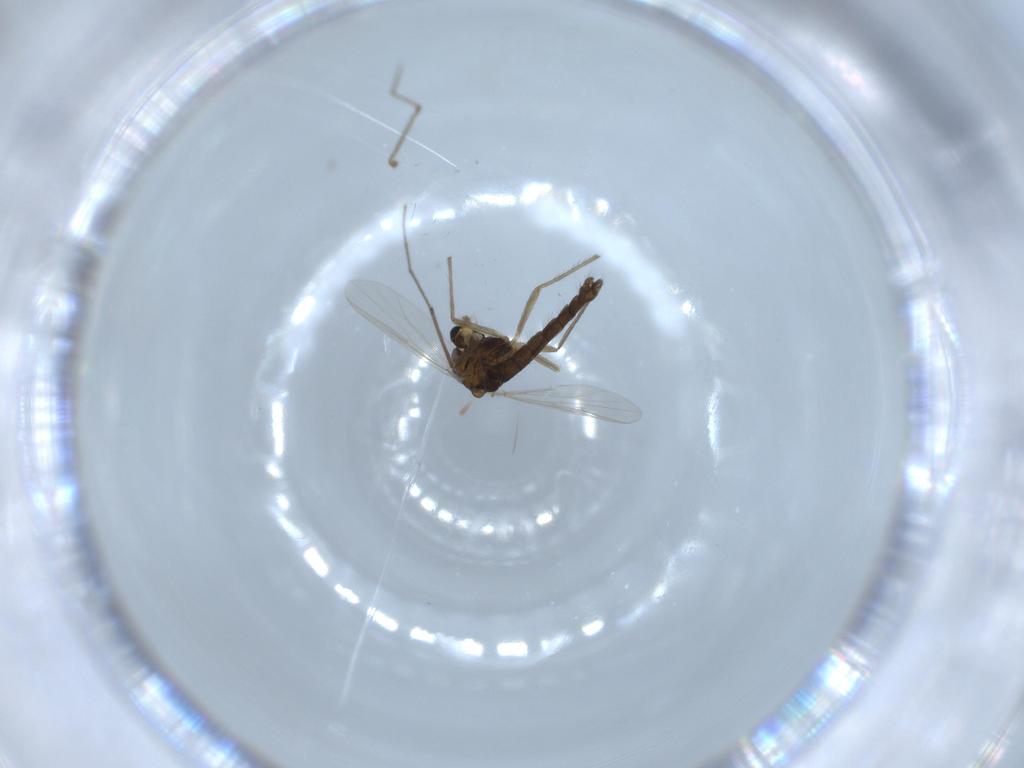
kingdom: Animalia
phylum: Arthropoda
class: Insecta
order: Diptera
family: Chironomidae
